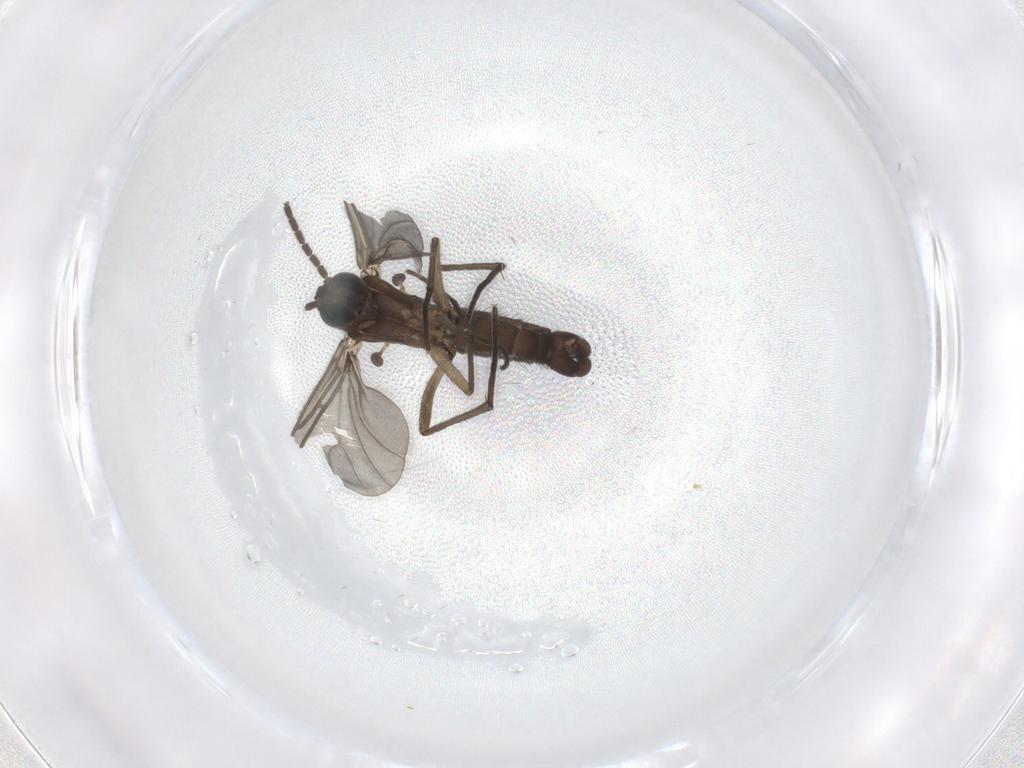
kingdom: Animalia
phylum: Arthropoda
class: Insecta
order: Diptera
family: Sciaridae
